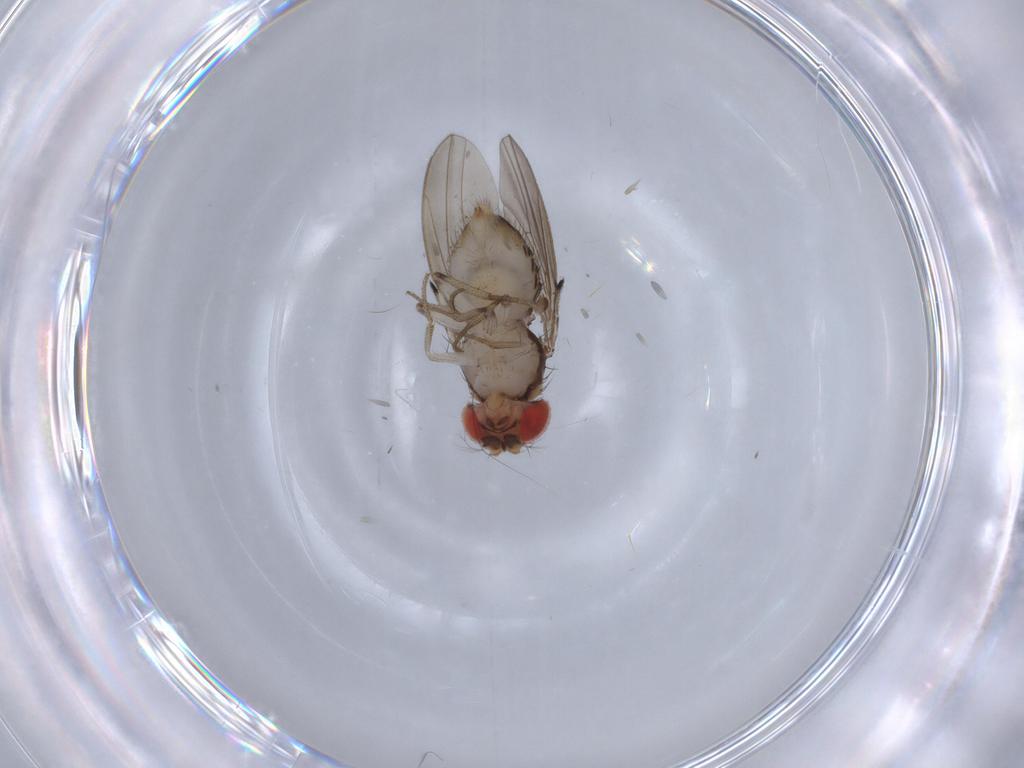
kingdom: Animalia
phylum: Arthropoda
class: Insecta
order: Diptera
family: Drosophilidae
